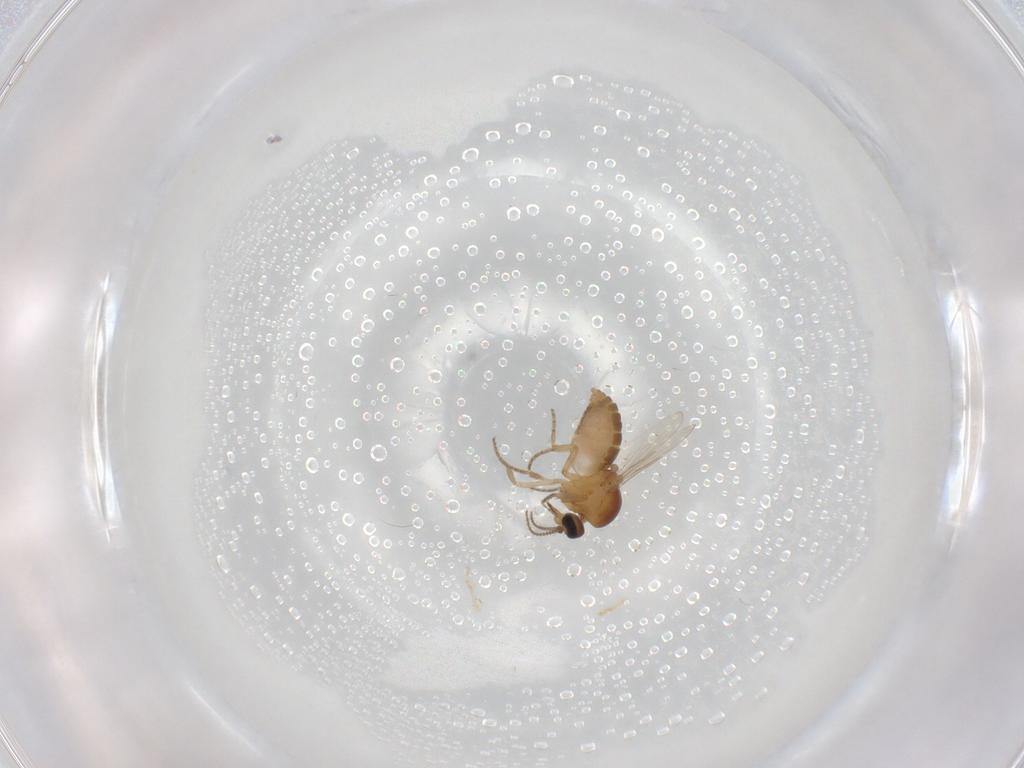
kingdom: Animalia
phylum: Arthropoda
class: Insecta
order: Diptera
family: Ceratopogonidae
